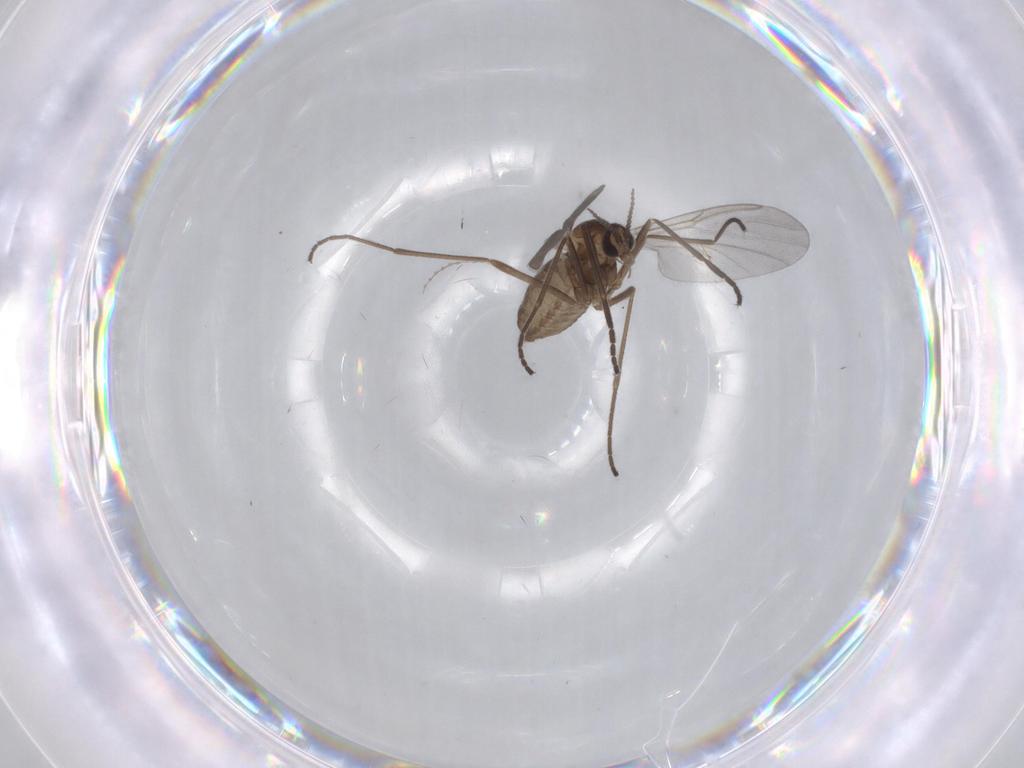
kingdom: Animalia
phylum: Arthropoda
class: Insecta
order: Diptera
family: Cecidomyiidae
